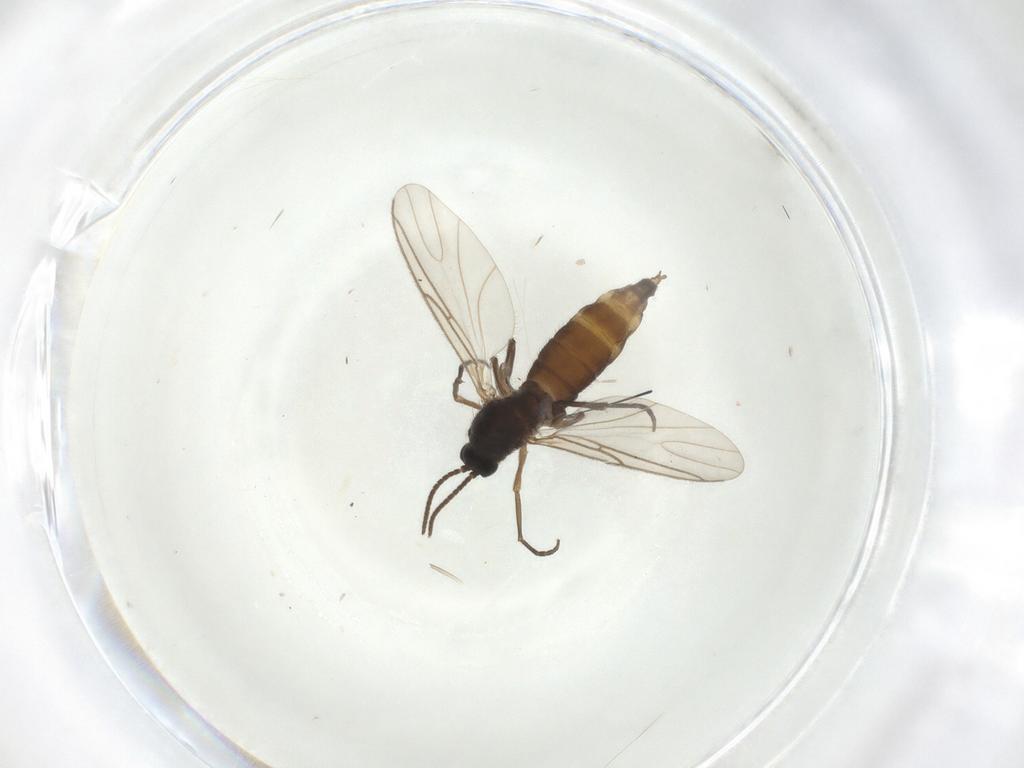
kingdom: Animalia
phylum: Arthropoda
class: Insecta
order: Diptera
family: Sciaridae
